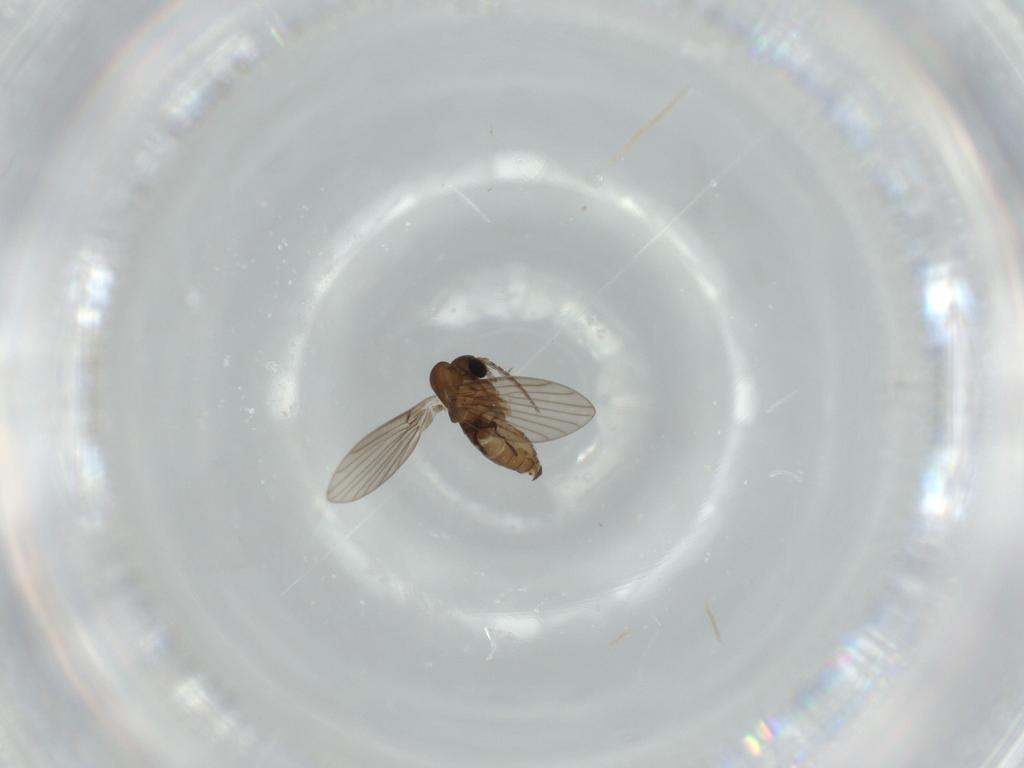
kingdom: Animalia
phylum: Arthropoda
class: Insecta
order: Diptera
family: Psychodidae
